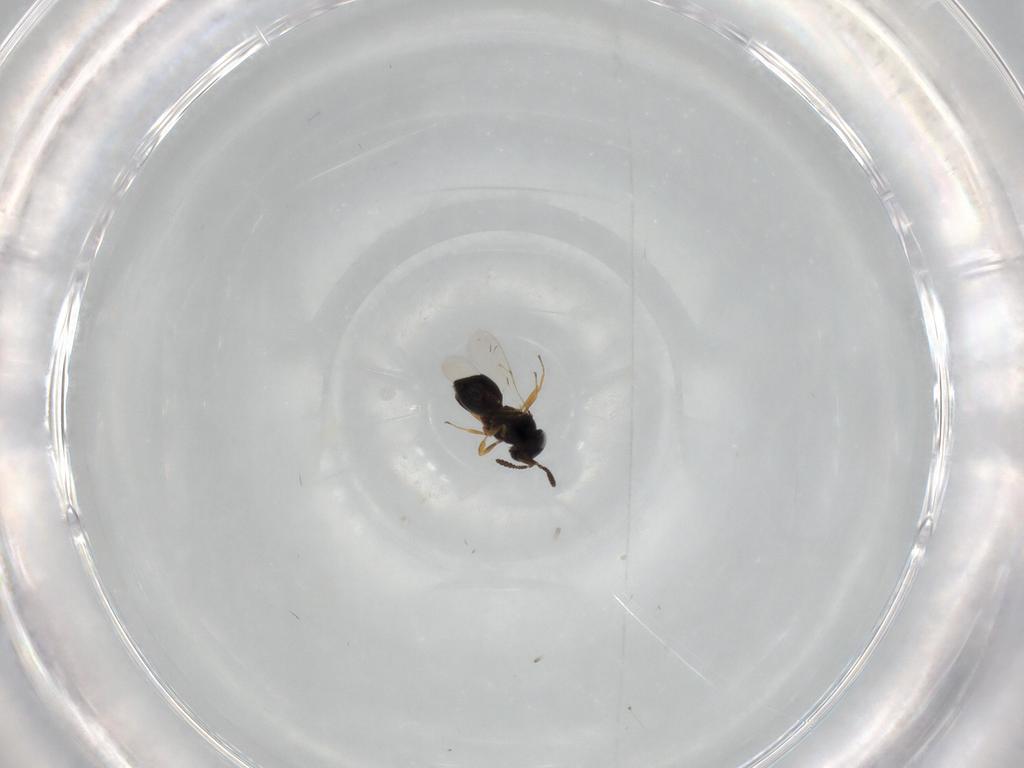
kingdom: Animalia
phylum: Arthropoda
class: Insecta
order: Hymenoptera
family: Scelionidae
